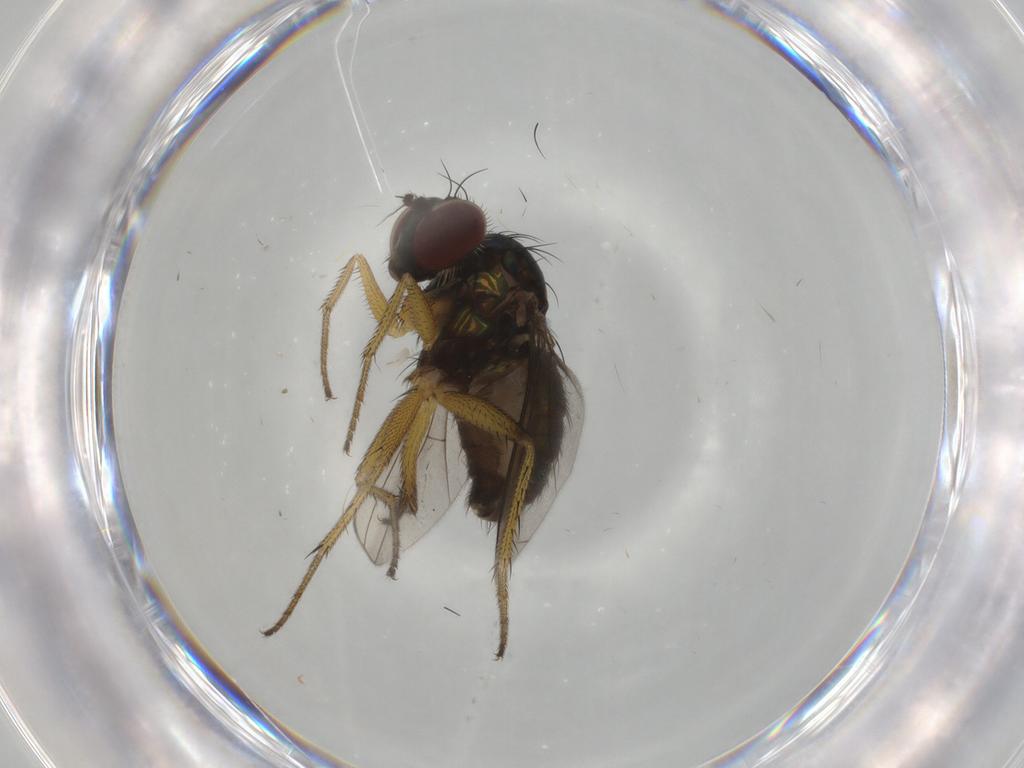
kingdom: Animalia
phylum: Arthropoda
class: Insecta
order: Diptera
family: Dolichopodidae
